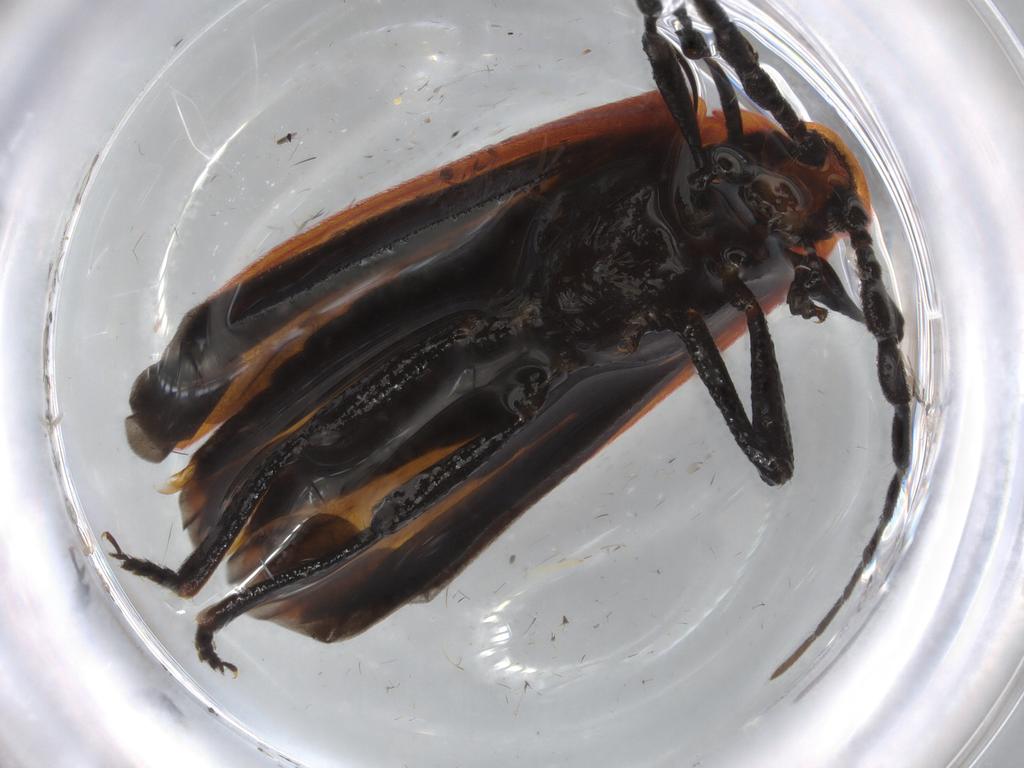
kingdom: Animalia
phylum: Arthropoda
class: Insecta
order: Coleoptera
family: Lycidae
